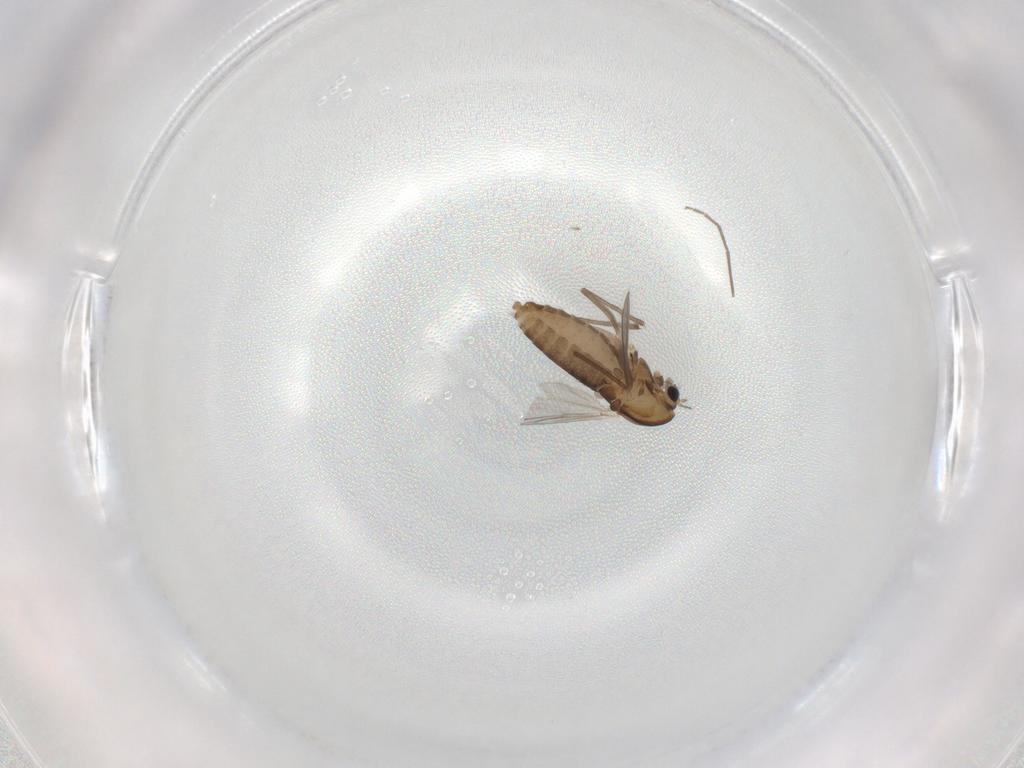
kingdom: Animalia
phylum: Arthropoda
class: Insecta
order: Diptera
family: Chironomidae
